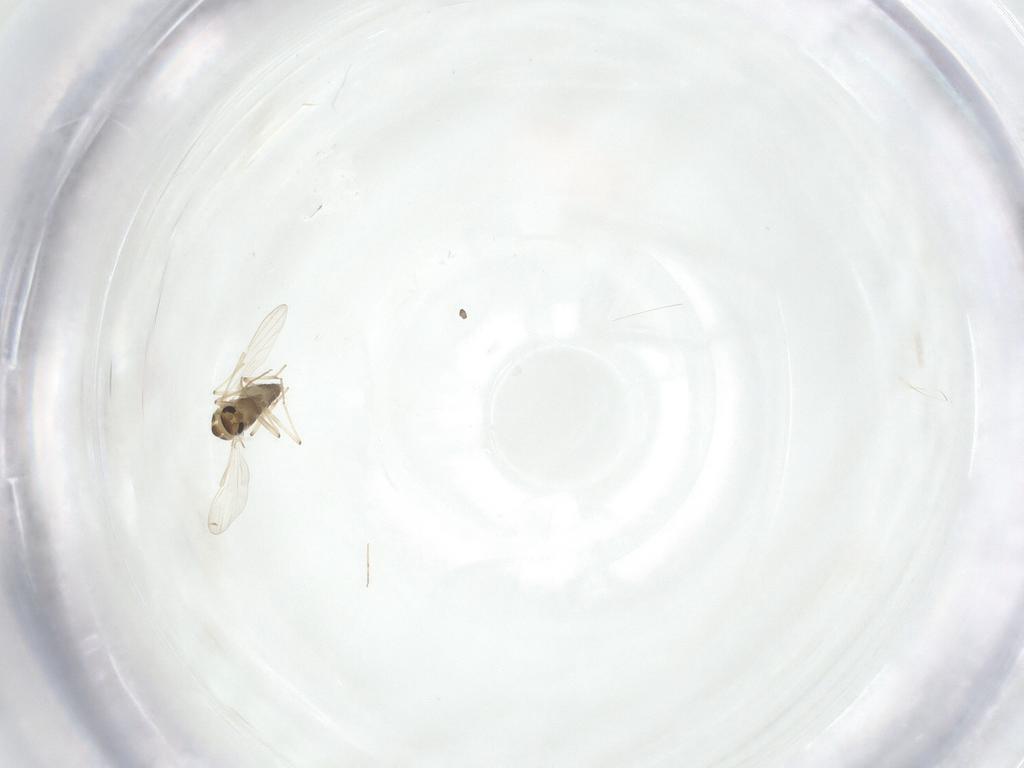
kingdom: Animalia
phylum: Arthropoda
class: Insecta
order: Diptera
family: Chironomidae
